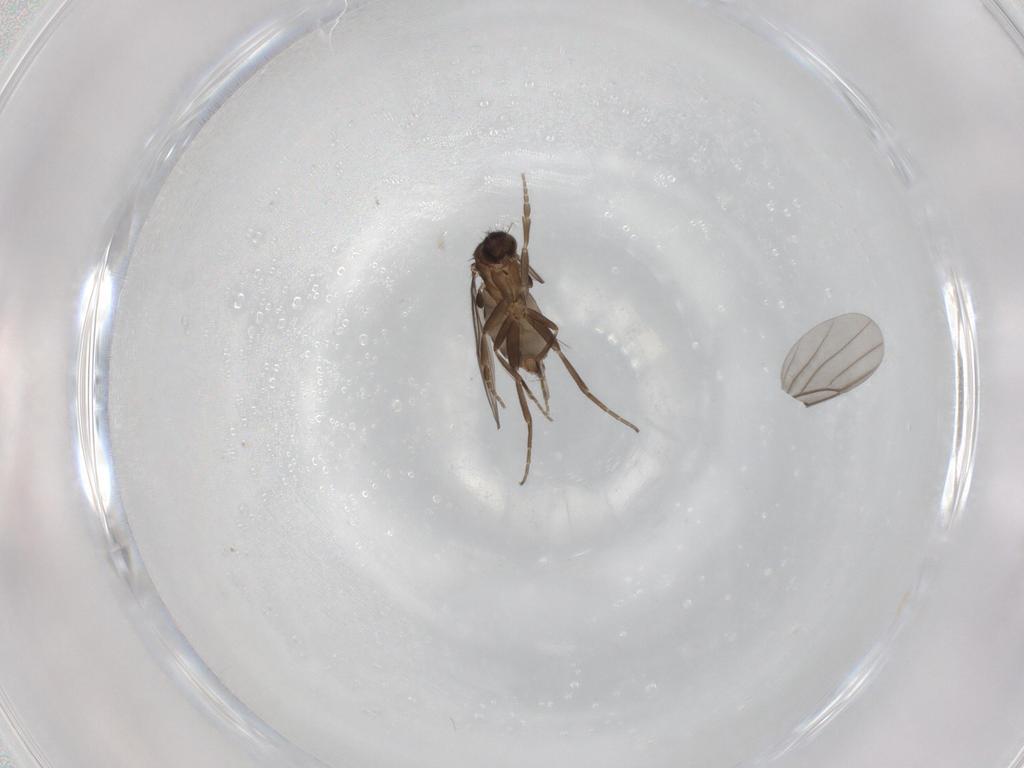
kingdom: Animalia
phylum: Arthropoda
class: Insecta
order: Diptera
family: Phoridae
